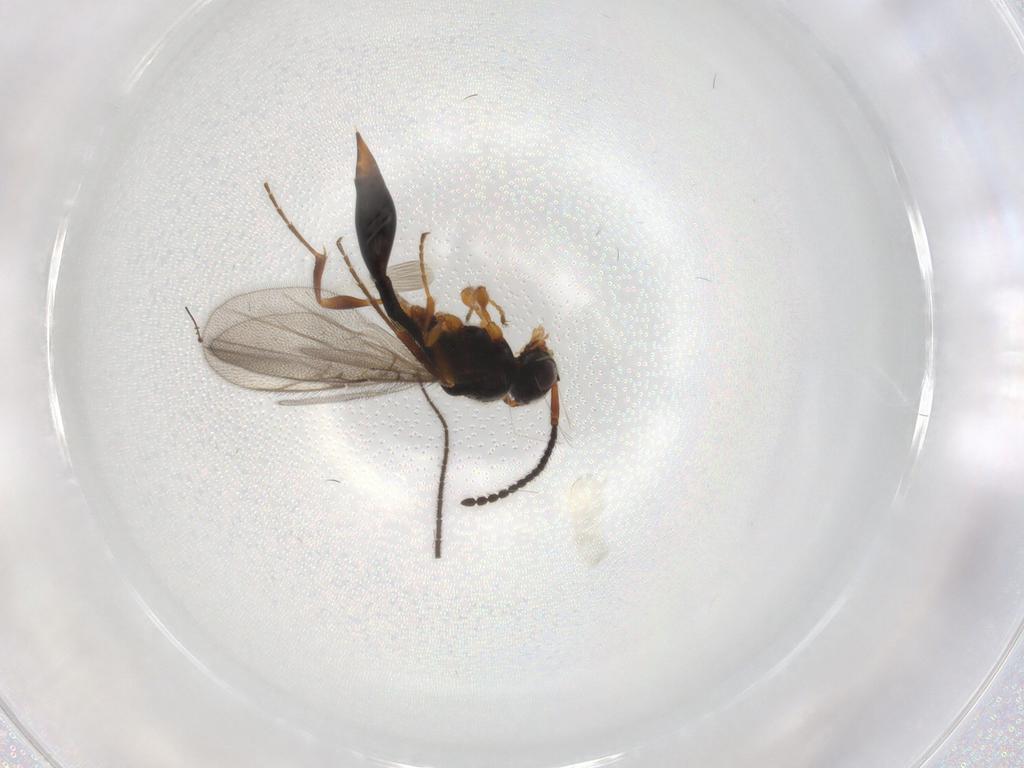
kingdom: Animalia
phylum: Arthropoda
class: Insecta
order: Hymenoptera
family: Diapriidae
